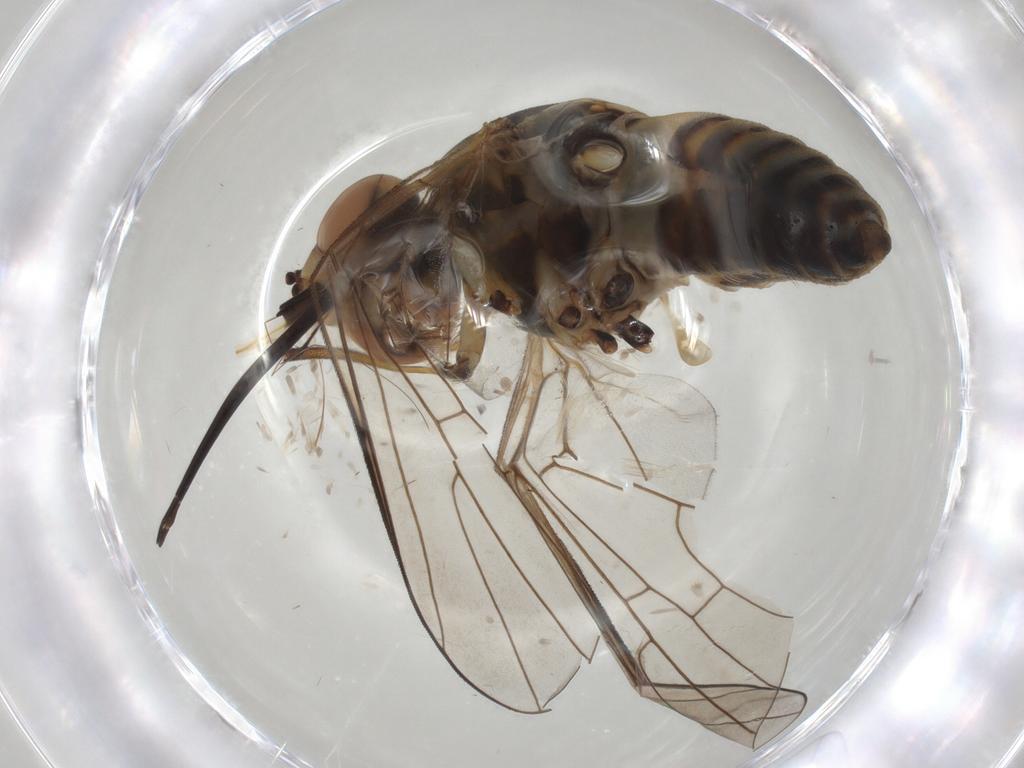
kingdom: Animalia
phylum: Arthropoda
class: Insecta
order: Diptera
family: Bombyliidae
